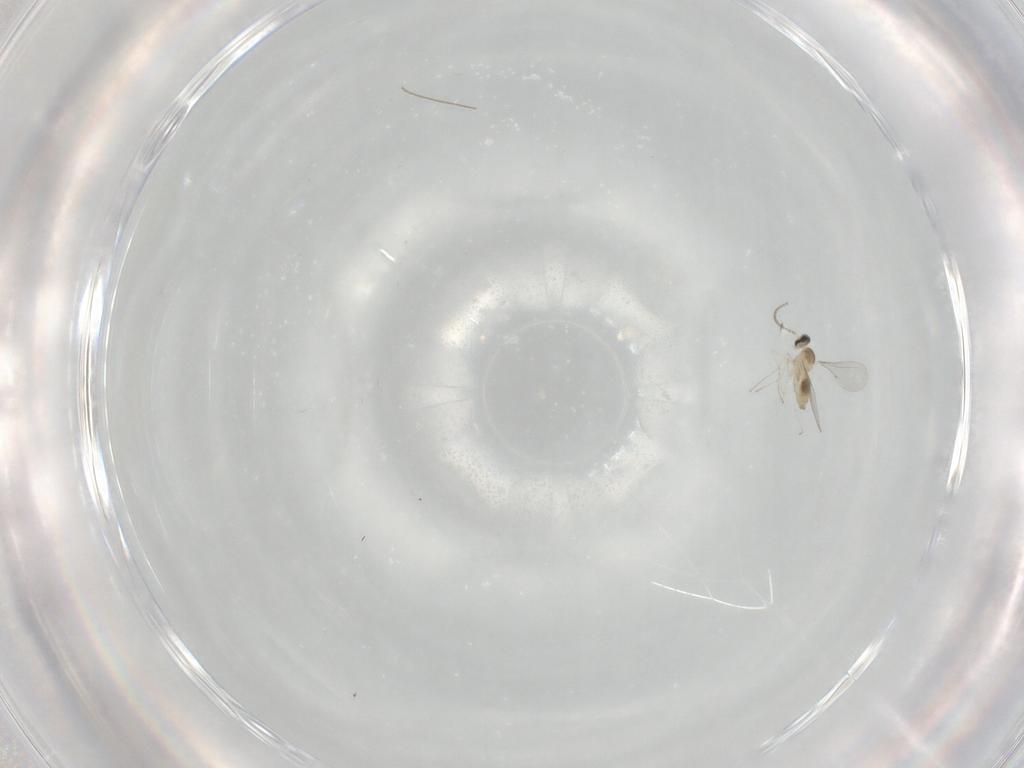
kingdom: Animalia
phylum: Arthropoda
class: Insecta
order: Diptera
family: Cecidomyiidae
